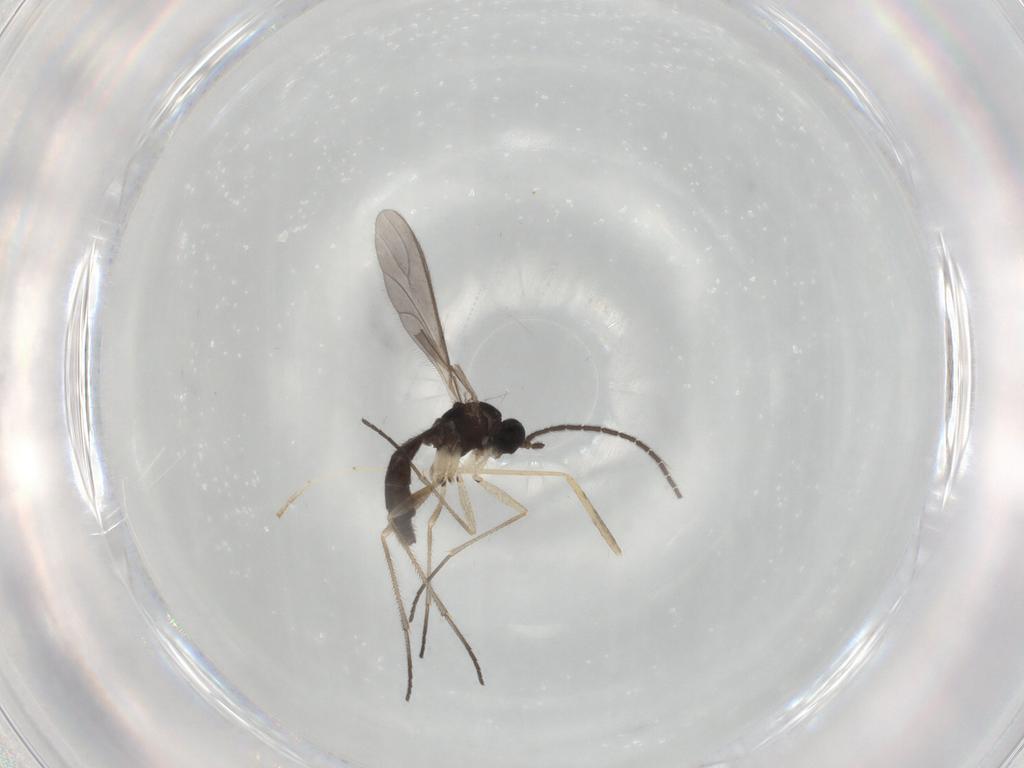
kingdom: Animalia
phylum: Arthropoda
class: Insecta
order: Diptera
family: Sciaridae
